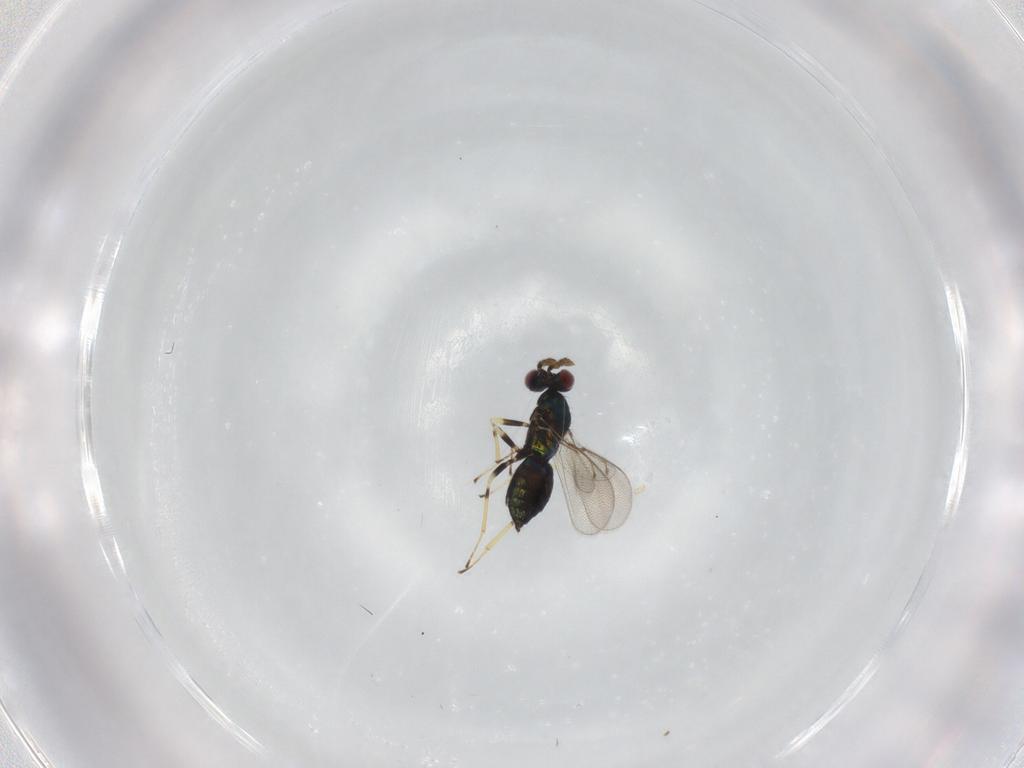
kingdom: Animalia
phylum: Arthropoda
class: Insecta
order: Hymenoptera
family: Eulophidae
